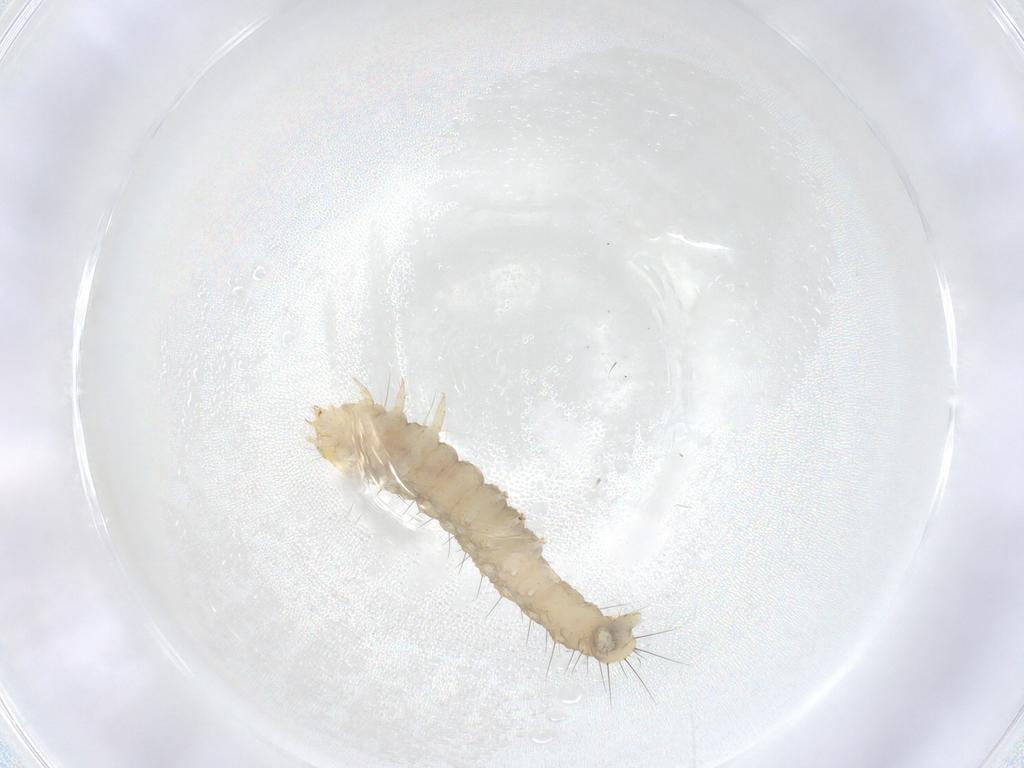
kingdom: Animalia
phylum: Arthropoda
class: Insecta
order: Lepidoptera
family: Gelechiidae
